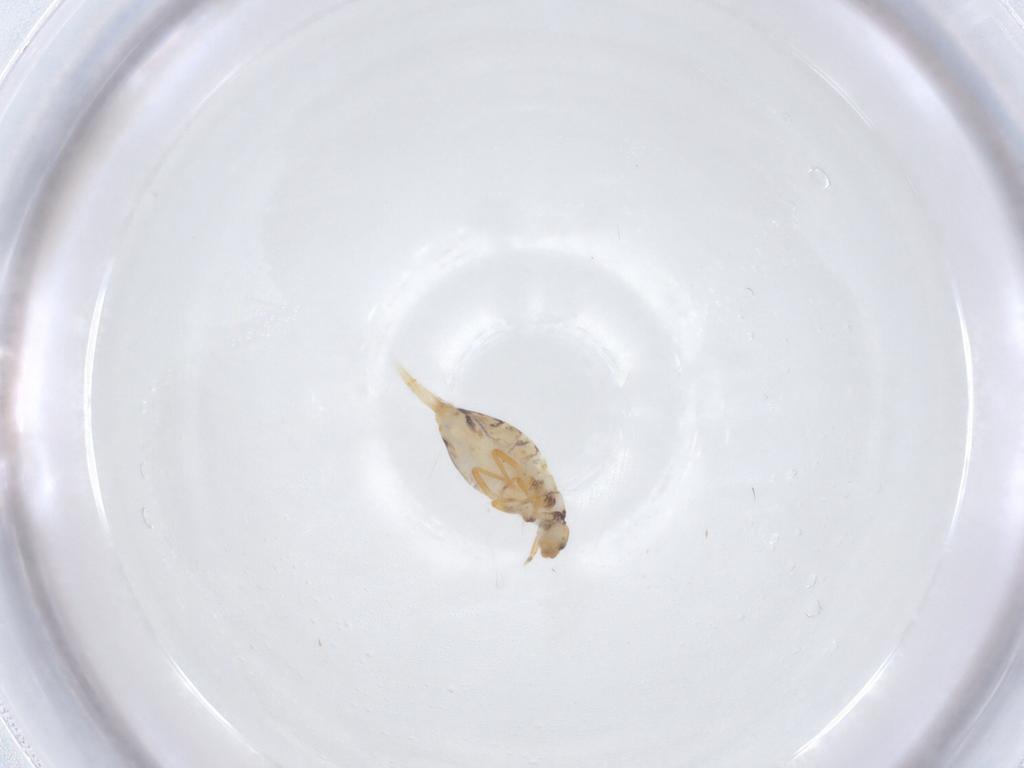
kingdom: Animalia
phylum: Arthropoda
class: Collembola
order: Entomobryomorpha
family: Entomobryidae
